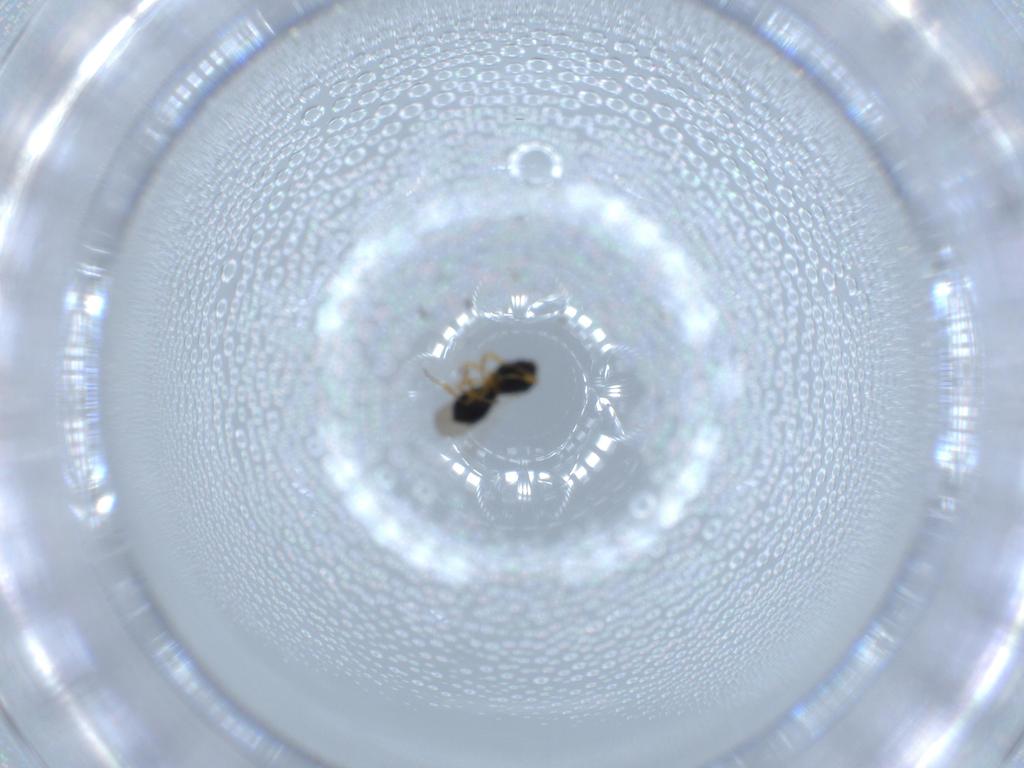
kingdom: Animalia
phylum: Arthropoda
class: Insecta
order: Hymenoptera
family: Scelionidae
